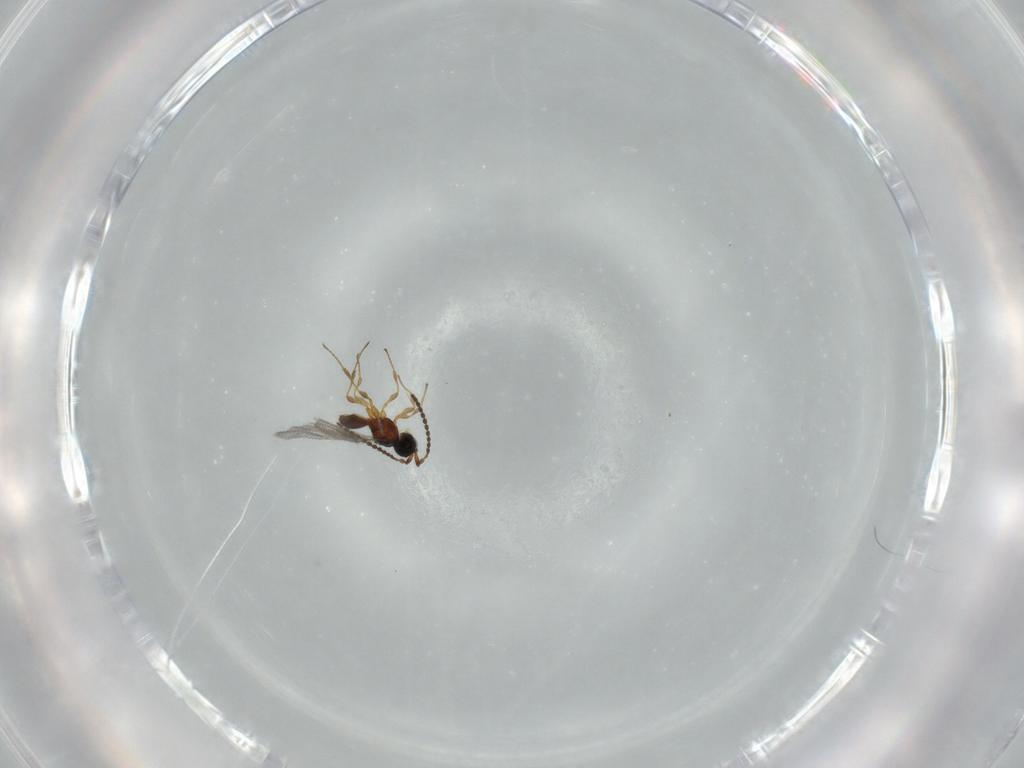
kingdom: Animalia
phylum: Arthropoda
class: Insecta
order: Hymenoptera
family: Diapriidae
